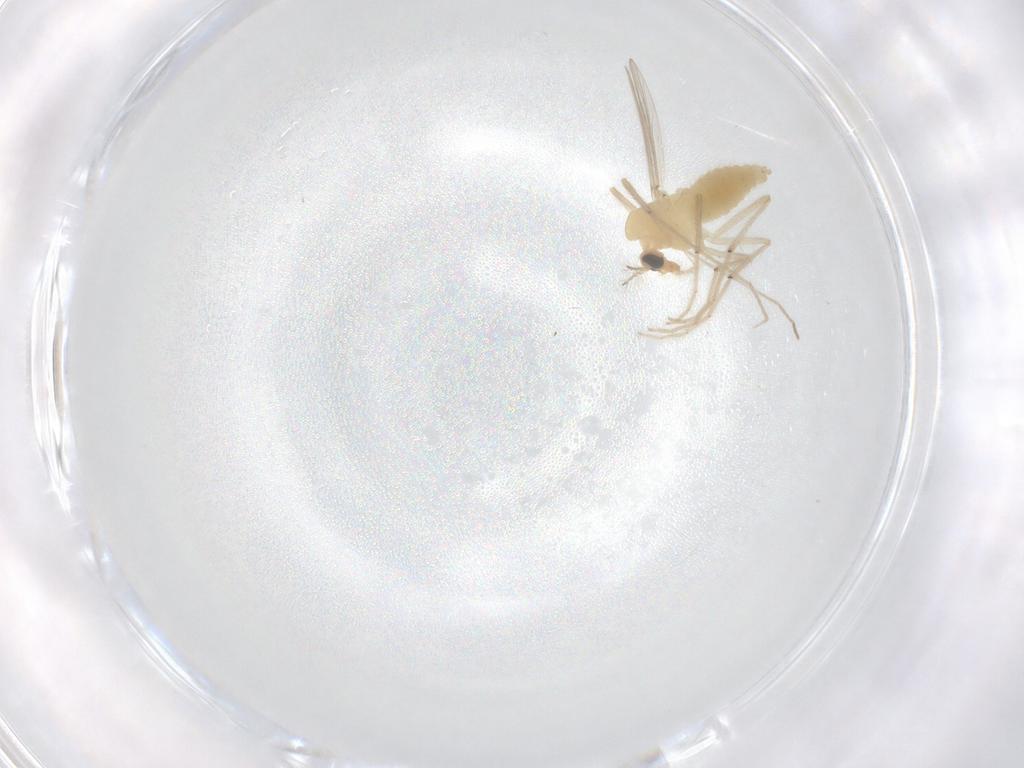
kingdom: Animalia
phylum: Arthropoda
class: Insecta
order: Diptera
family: Chironomidae
